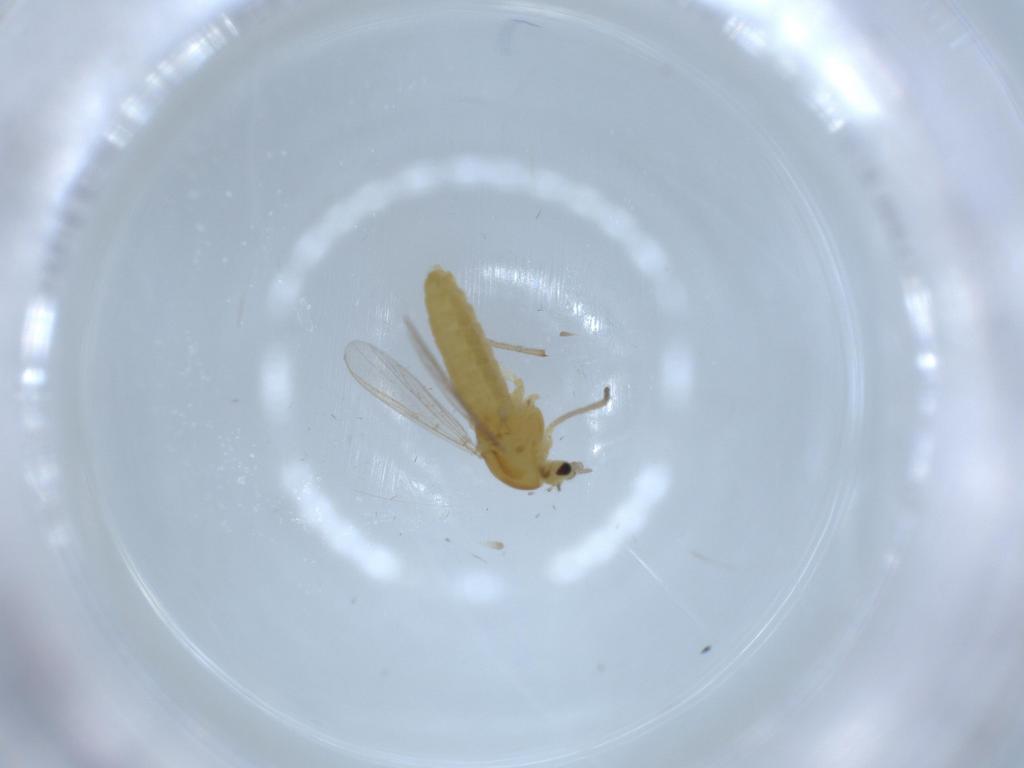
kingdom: Animalia
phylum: Arthropoda
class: Insecta
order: Diptera
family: Chironomidae
